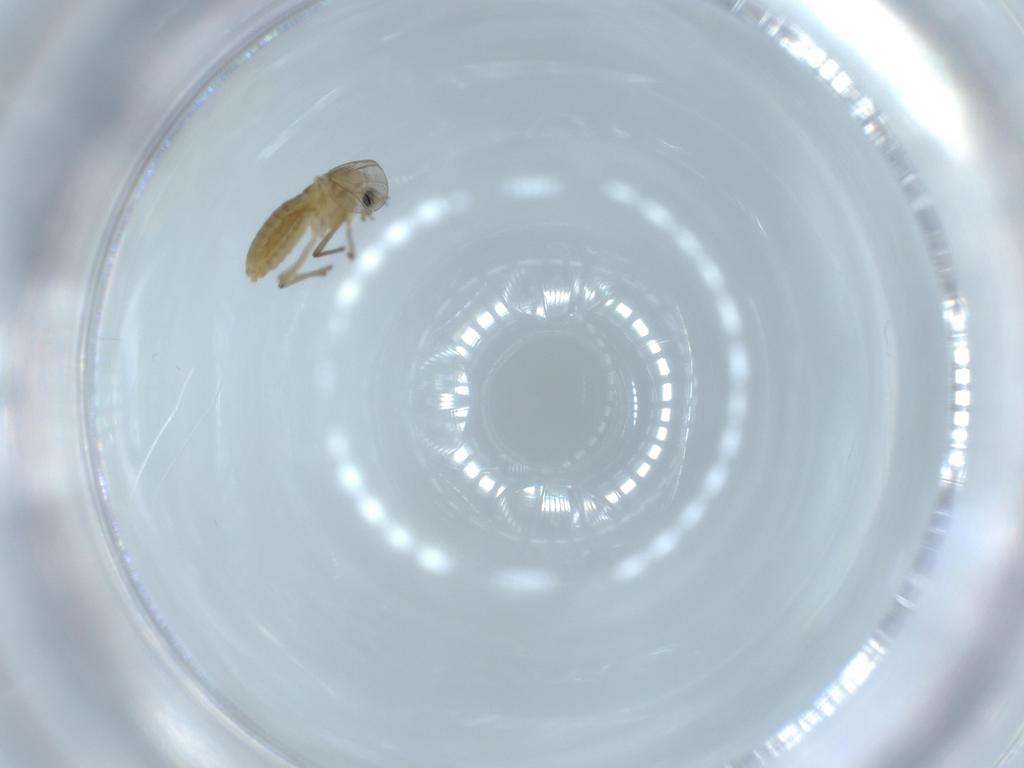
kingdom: Animalia
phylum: Arthropoda
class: Insecta
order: Diptera
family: Chironomidae
